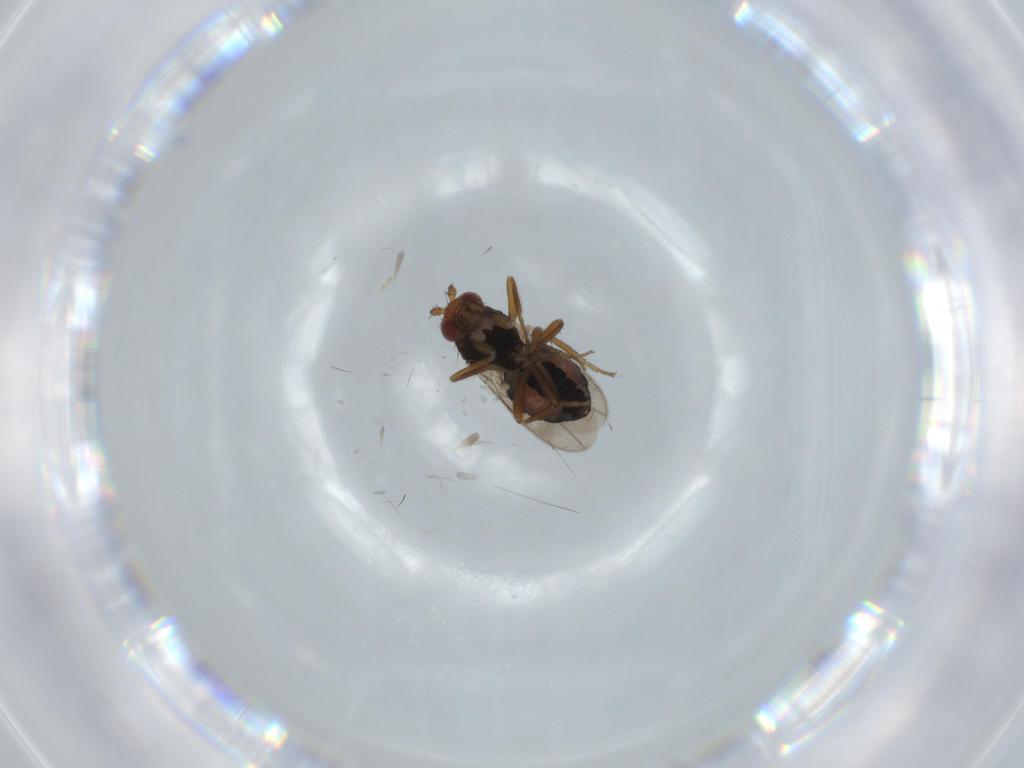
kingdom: Animalia
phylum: Arthropoda
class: Insecta
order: Diptera
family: Sphaeroceridae
